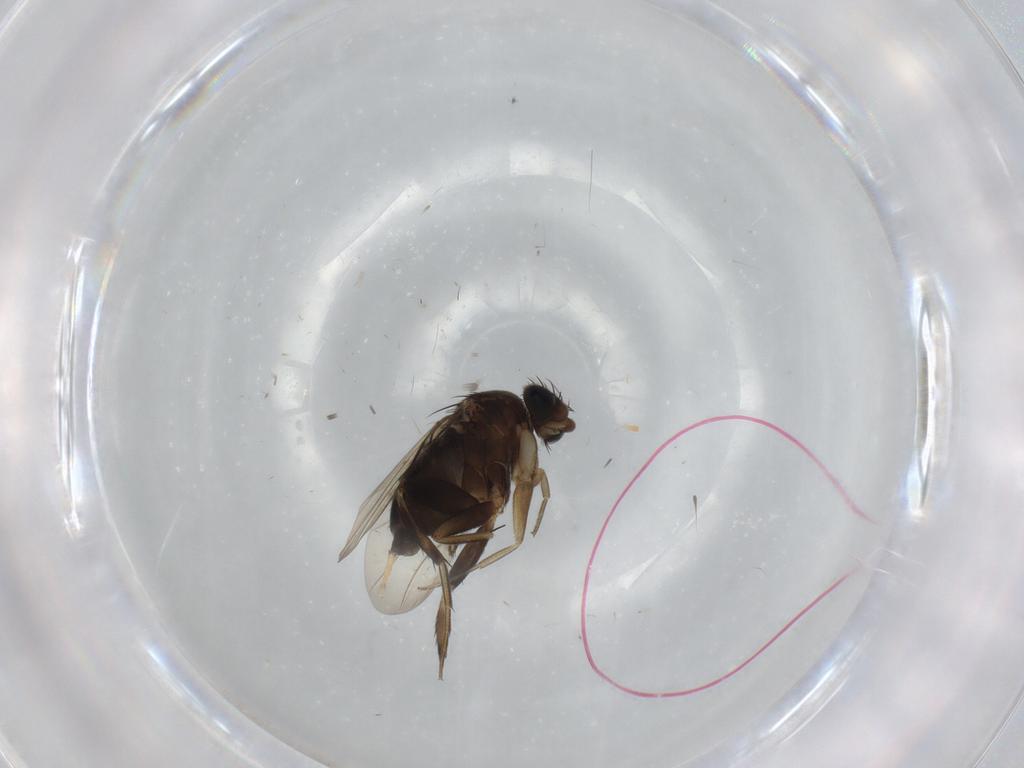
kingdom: Animalia
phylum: Arthropoda
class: Insecta
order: Diptera
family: Phoridae
